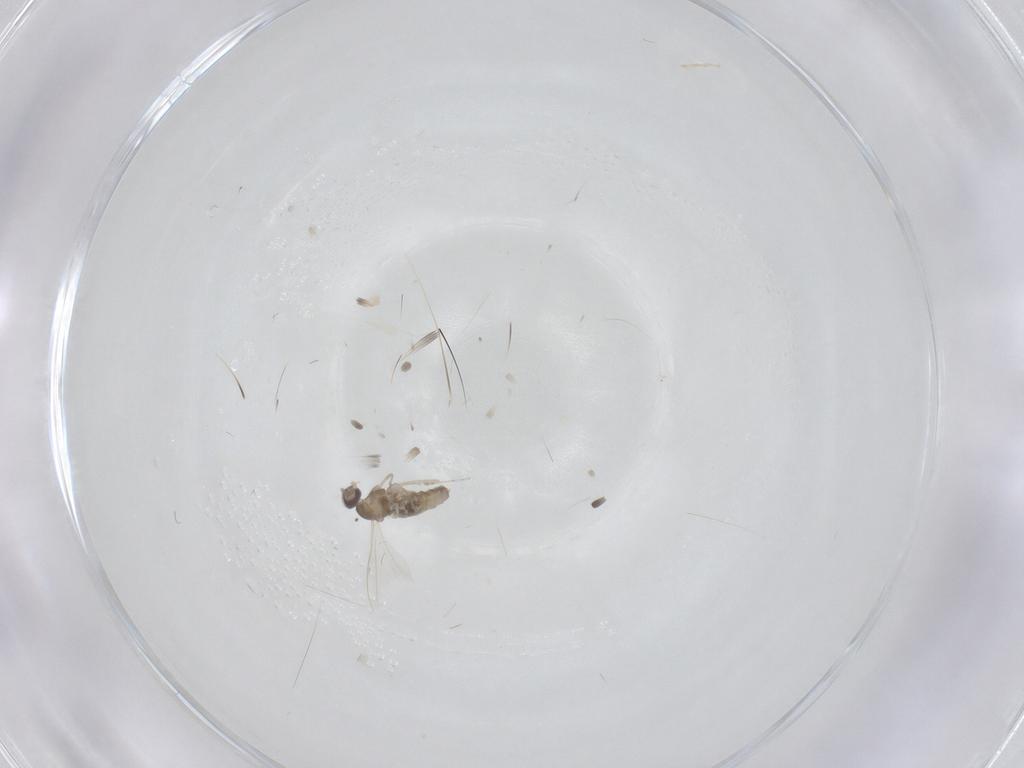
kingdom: Animalia
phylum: Arthropoda
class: Insecta
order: Diptera
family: Cecidomyiidae
